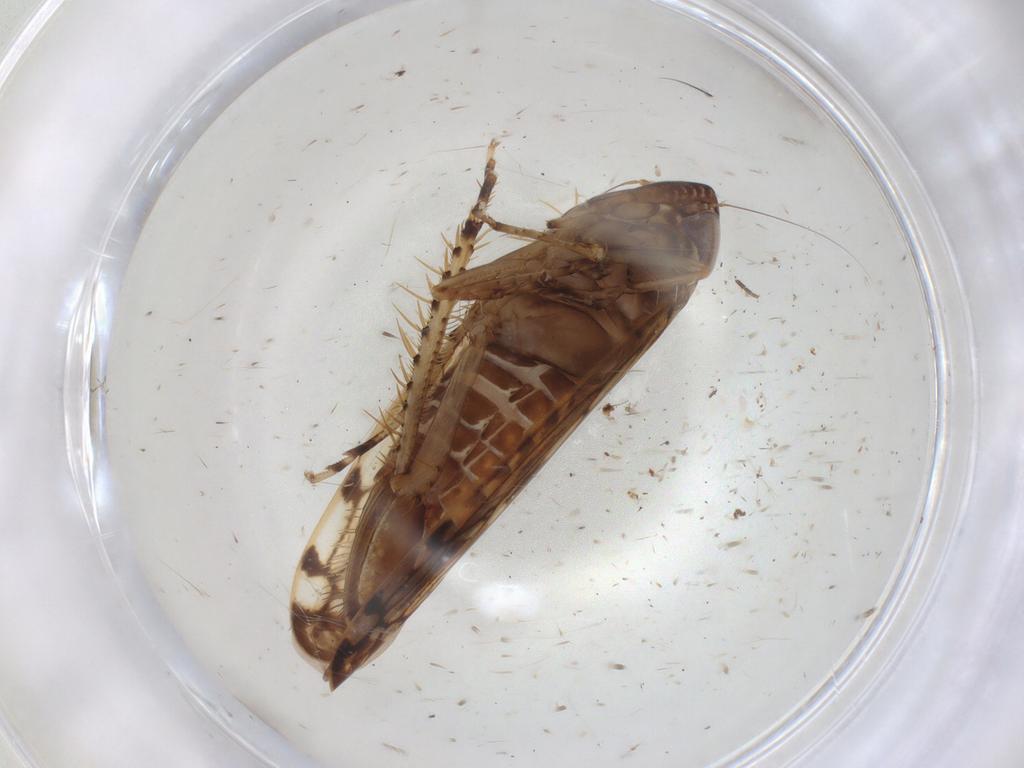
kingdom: Animalia
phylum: Arthropoda
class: Insecta
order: Hemiptera
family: Cicadellidae
